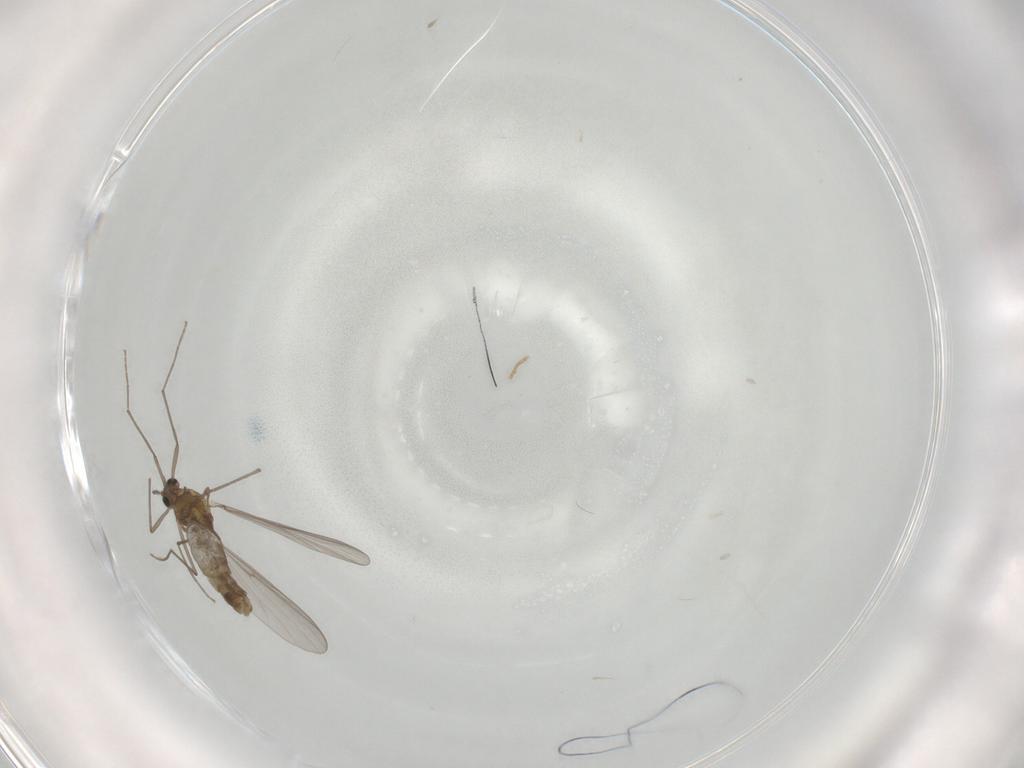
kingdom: Animalia
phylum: Arthropoda
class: Insecta
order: Diptera
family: Chironomidae
